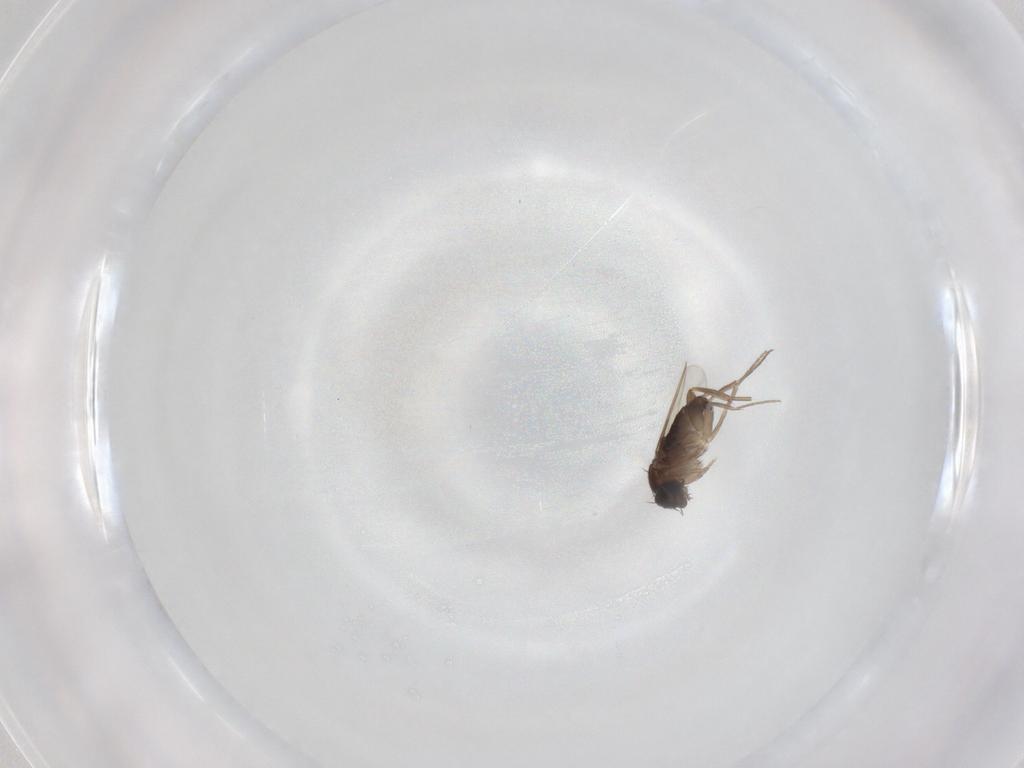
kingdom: Animalia
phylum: Arthropoda
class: Insecta
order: Diptera
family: Phoridae
